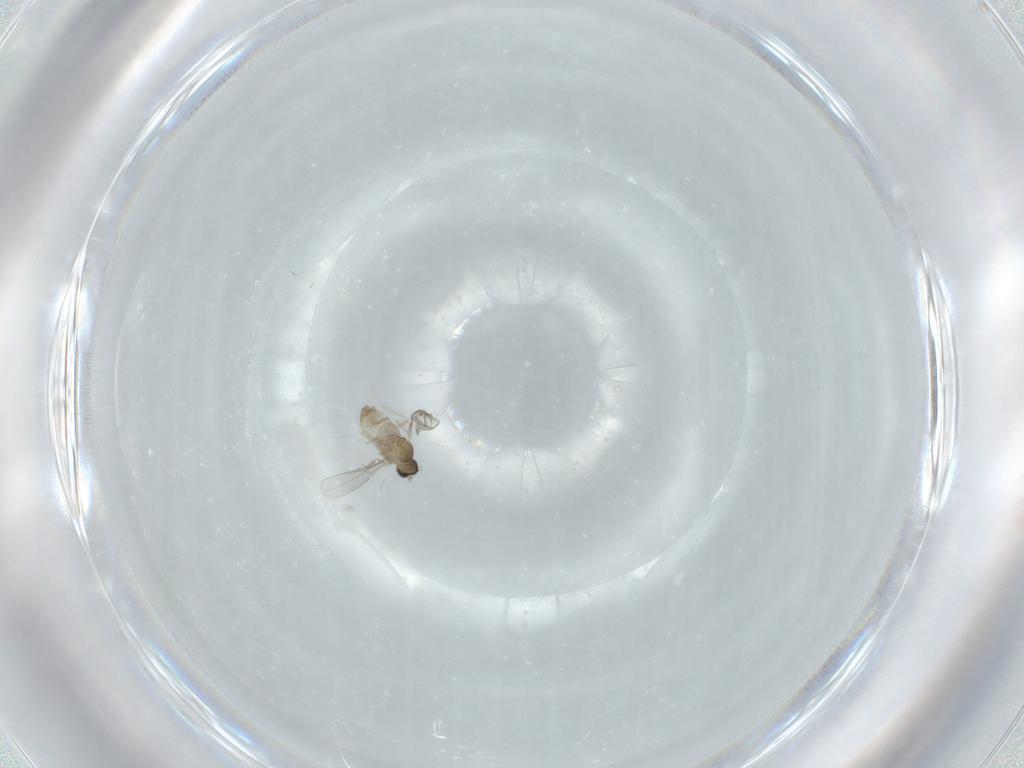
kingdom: Animalia
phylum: Arthropoda
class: Insecta
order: Diptera
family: Cecidomyiidae
